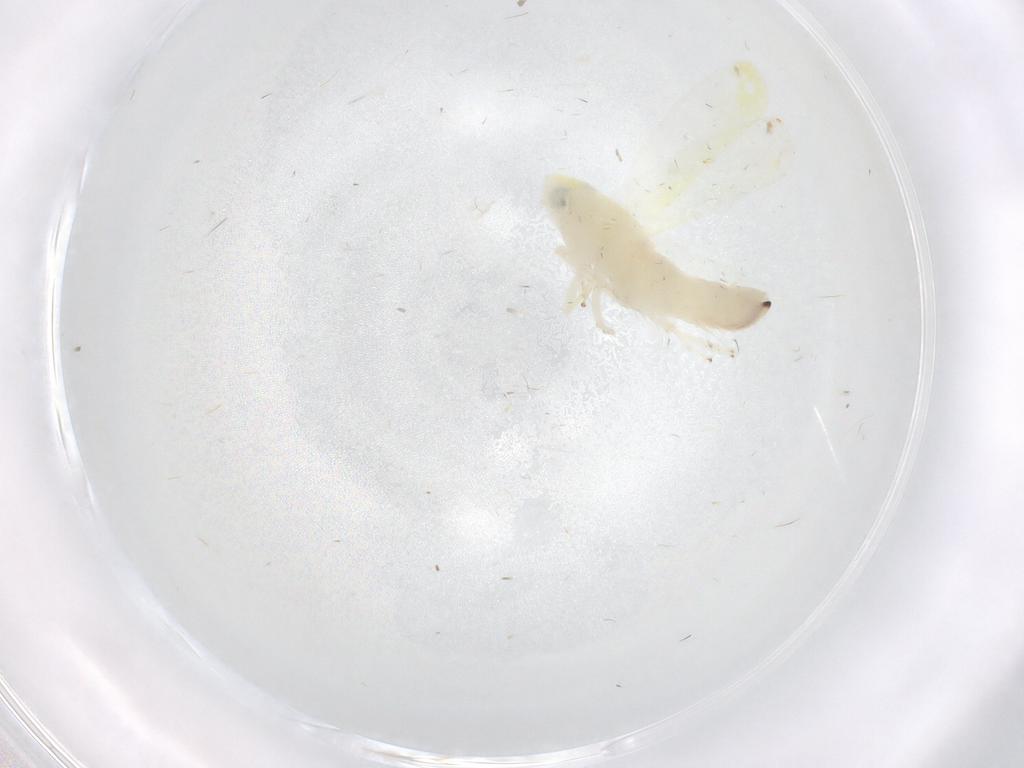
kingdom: Animalia
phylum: Arthropoda
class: Insecta
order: Hemiptera
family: Cicadellidae
